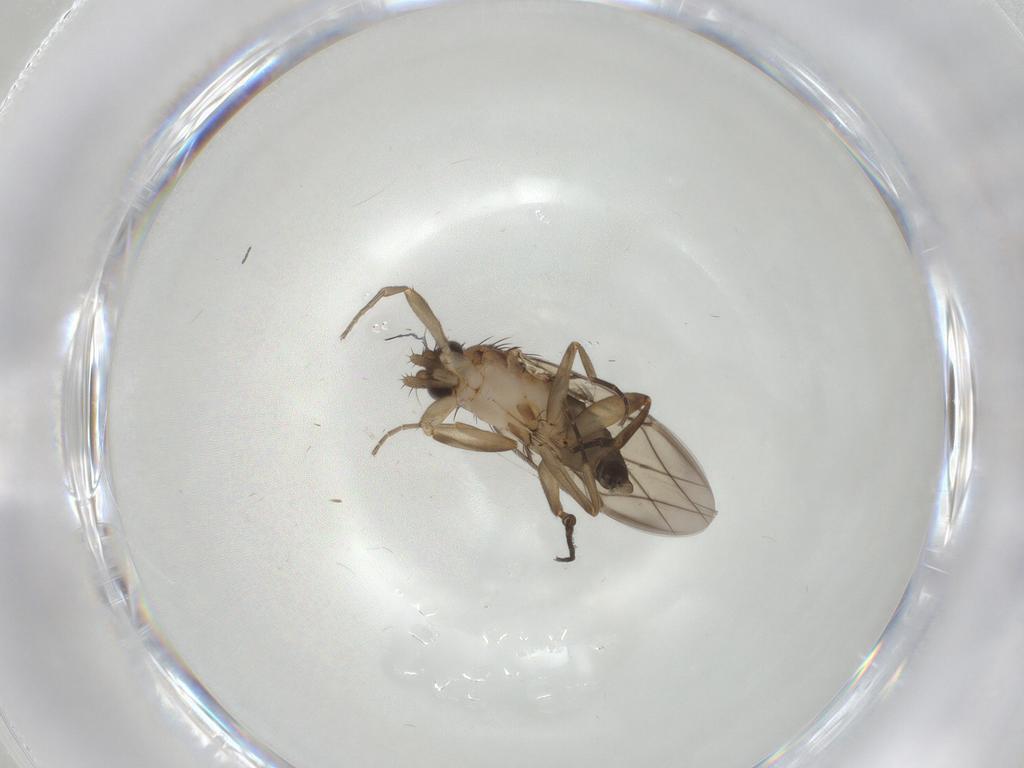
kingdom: Animalia
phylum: Arthropoda
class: Insecta
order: Diptera
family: Phoridae
